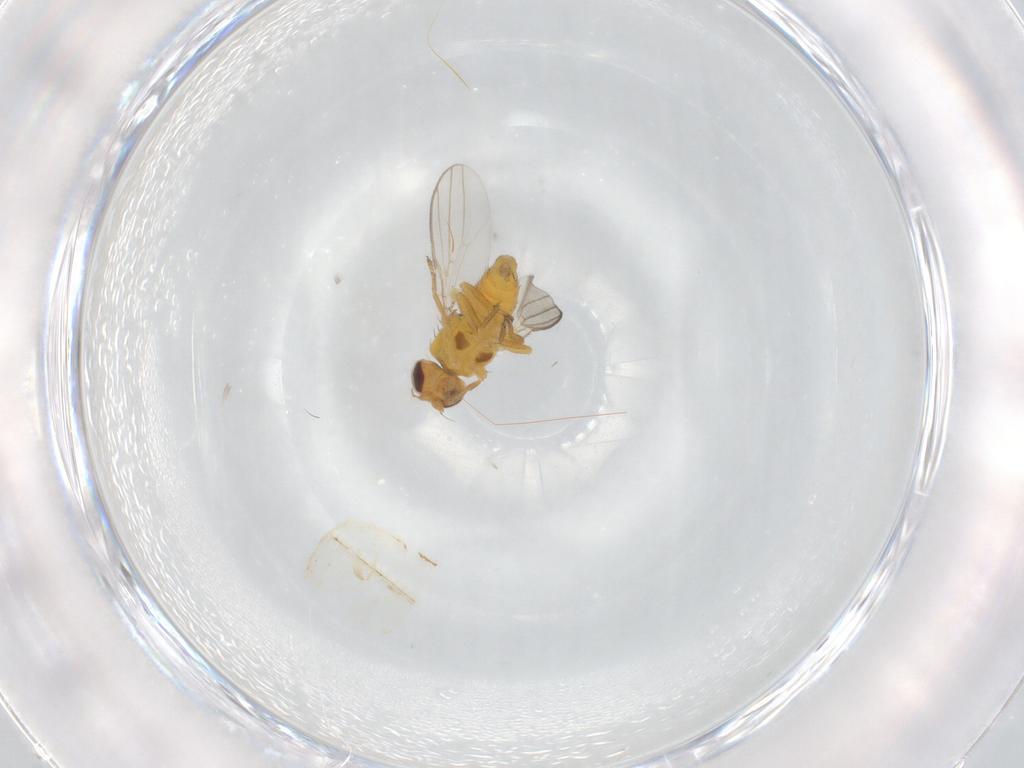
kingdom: Animalia
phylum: Arthropoda
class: Insecta
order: Diptera
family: Chloropidae
